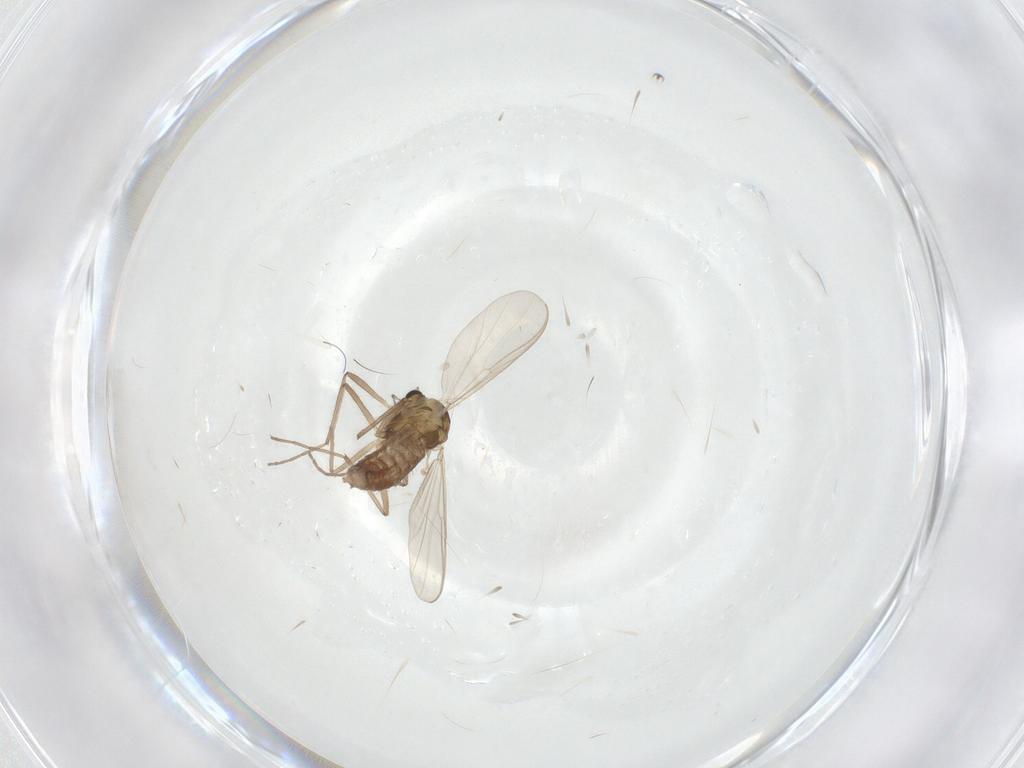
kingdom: Animalia
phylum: Arthropoda
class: Insecta
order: Diptera
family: Chironomidae
